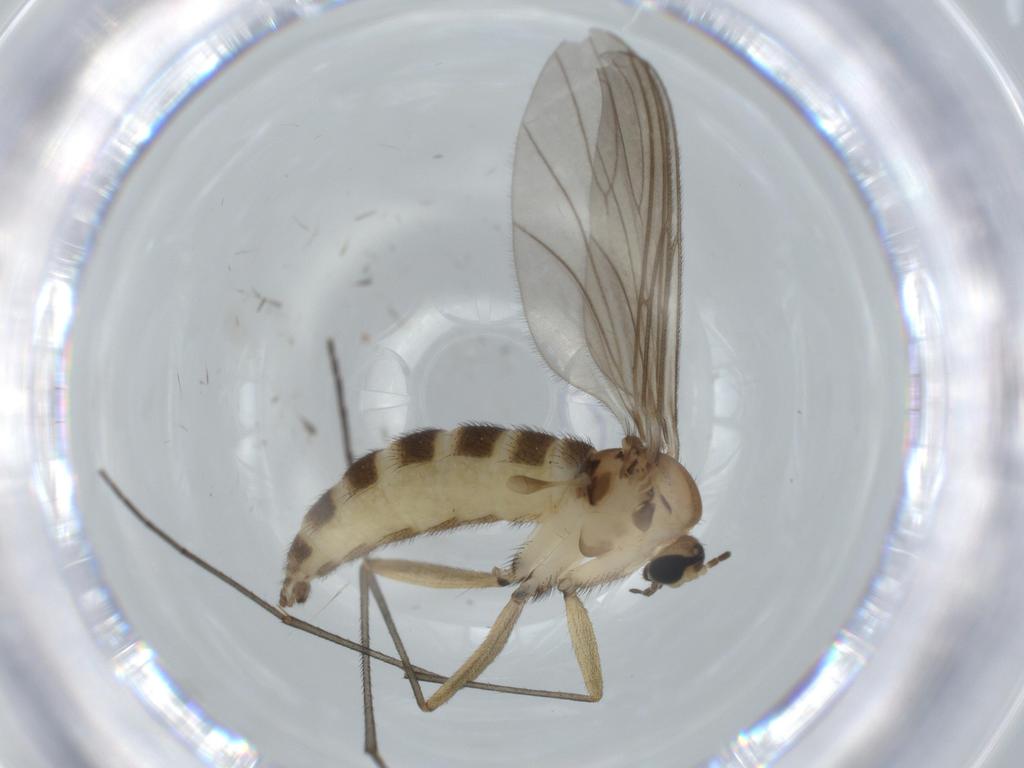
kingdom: Animalia
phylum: Arthropoda
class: Insecta
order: Diptera
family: Sciaridae
